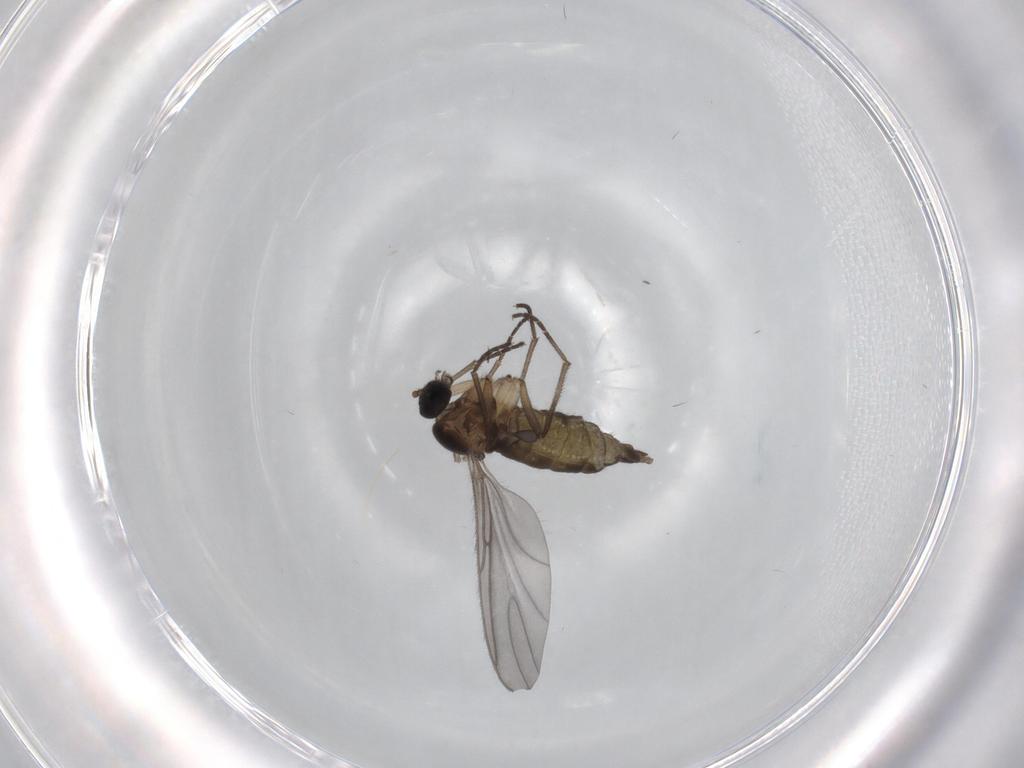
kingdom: Animalia
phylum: Arthropoda
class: Insecta
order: Diptera
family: Sciaridae
